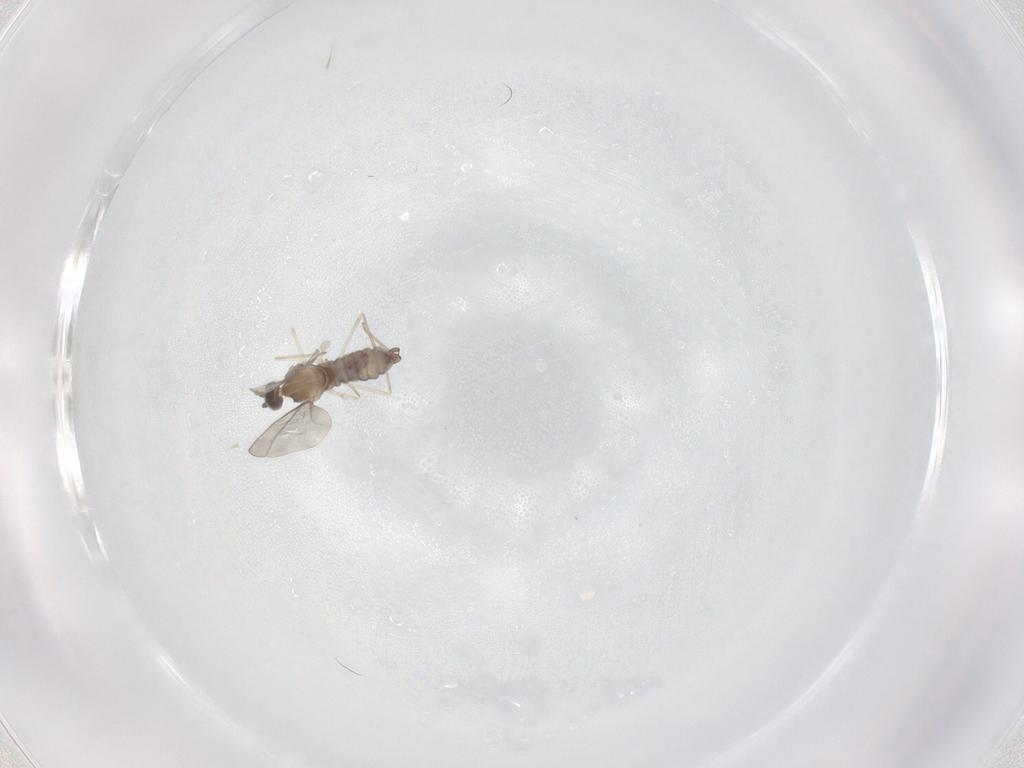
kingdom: Animalia
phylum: Arthropoda
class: Insecta
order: Diptera
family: Cecidomyiidae
